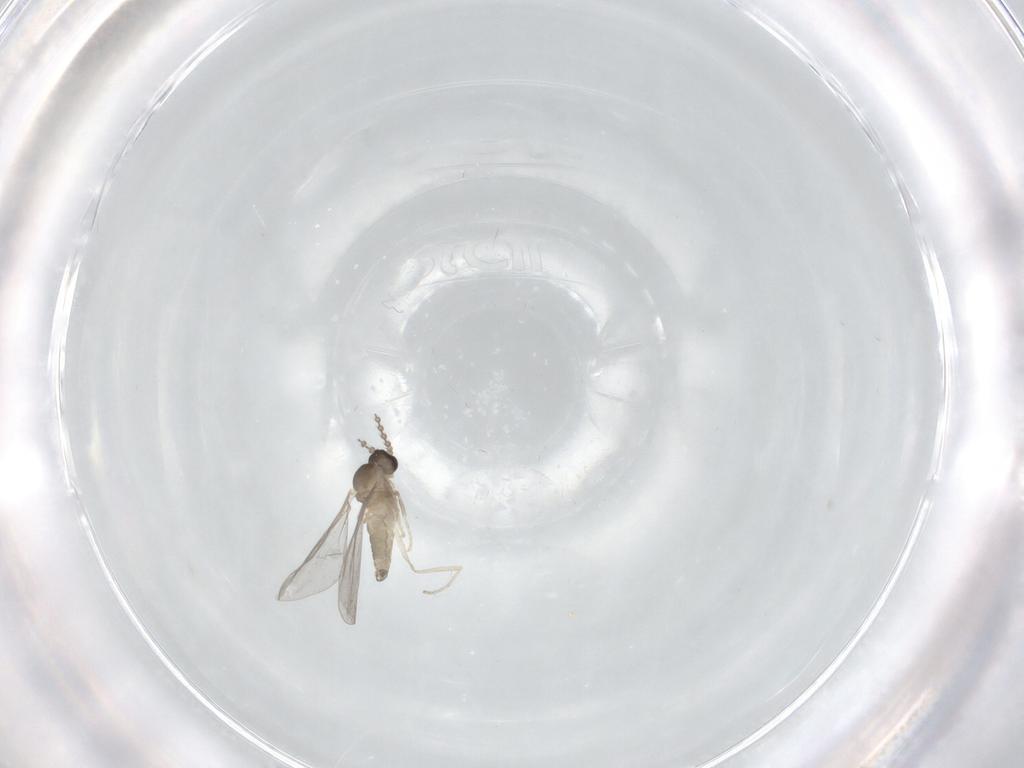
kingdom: Animalia
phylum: Arthropoda
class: Insecta
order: Diptera
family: Cecidomyiidae
